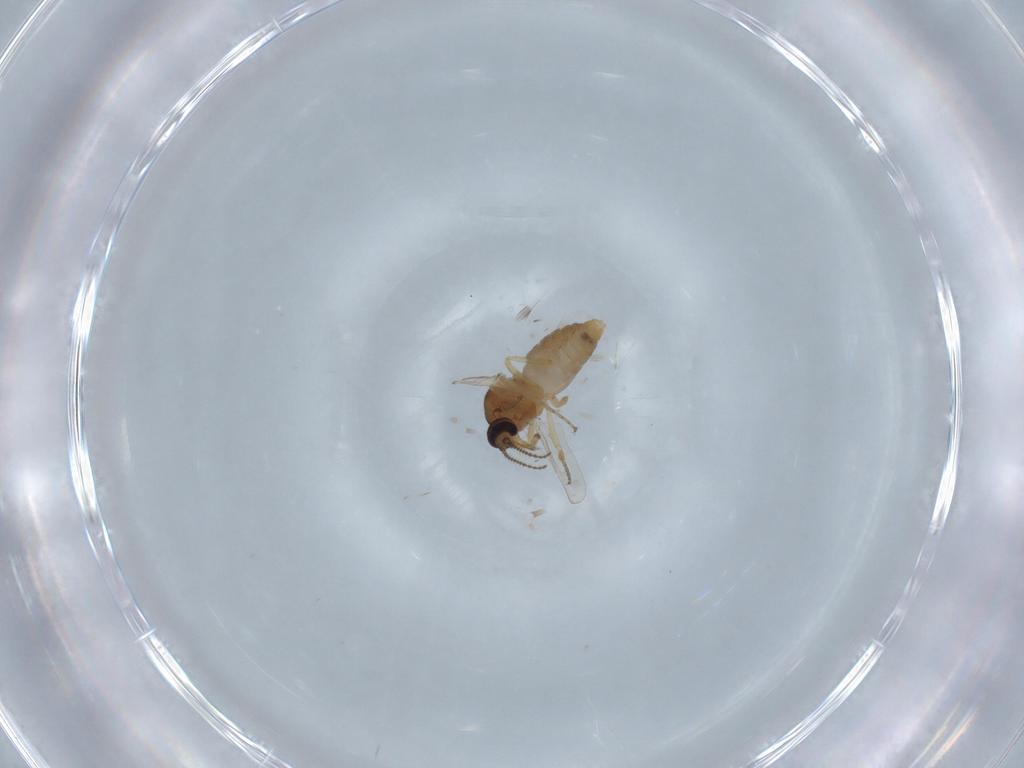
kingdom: Animalia
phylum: Arthropoda
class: Insecta
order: Diptera
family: Ceratopogonidae
